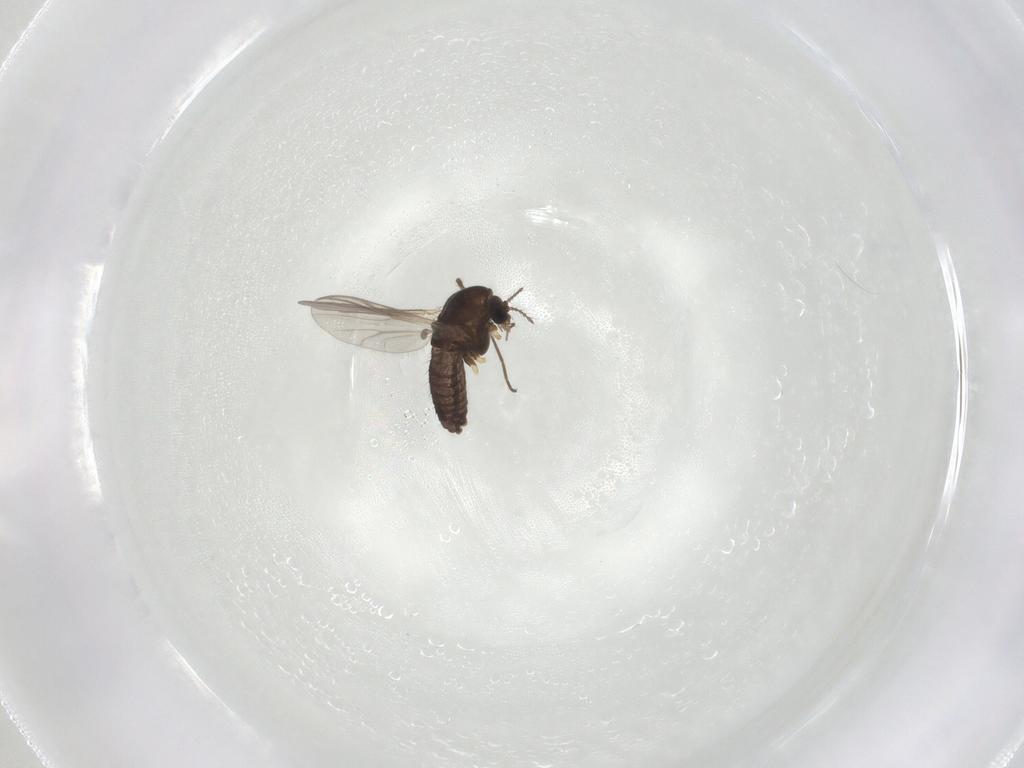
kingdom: Animalia
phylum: Arthropoda
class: Insecta
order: Diptera
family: Chironomidae
